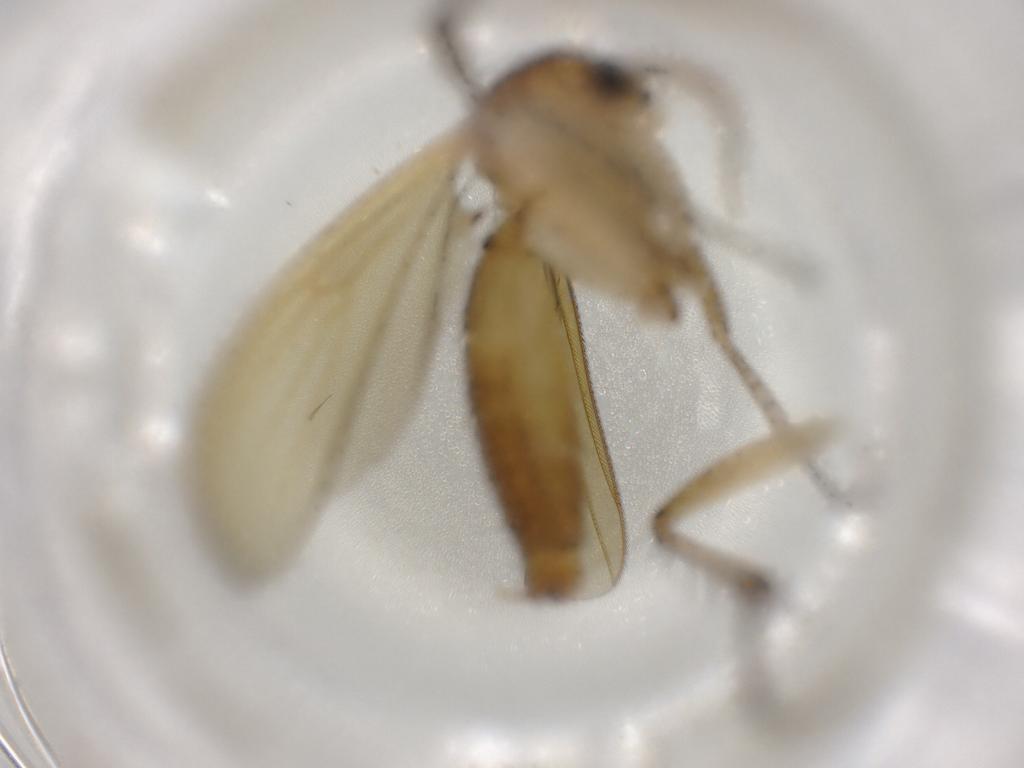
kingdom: Animalia
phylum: Arthropoda
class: Insecta
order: Diptera
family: Mycetophilidae
